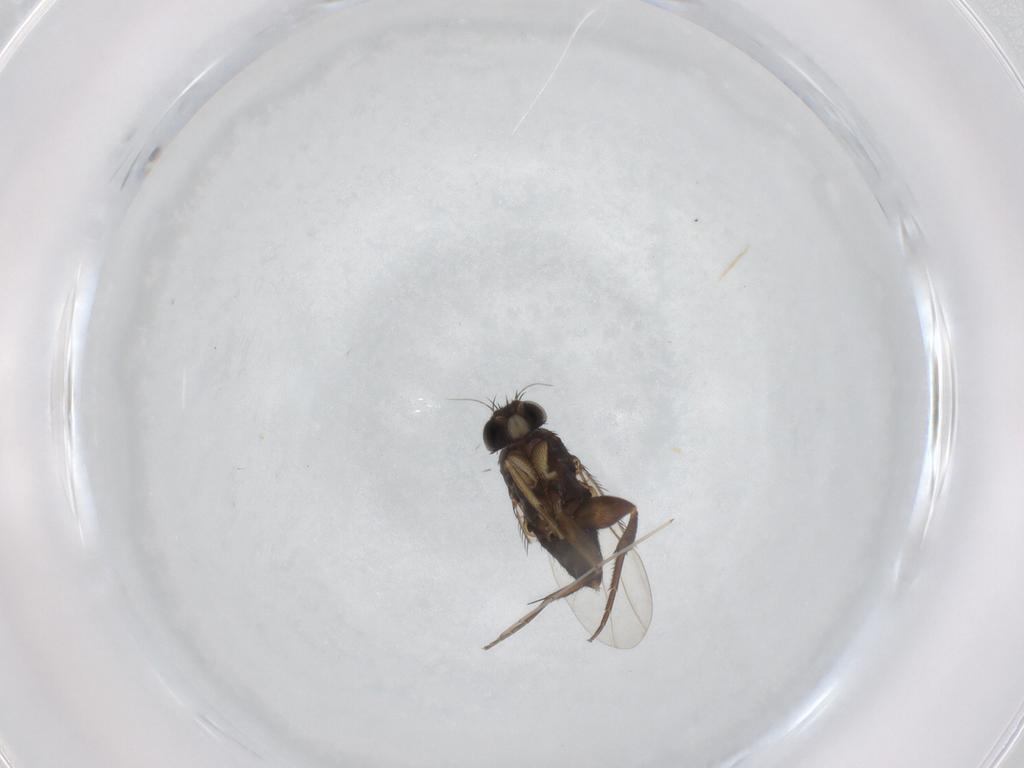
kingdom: Animalia
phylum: Arthropoda
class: Insecta
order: Diptera
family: Phoridae
